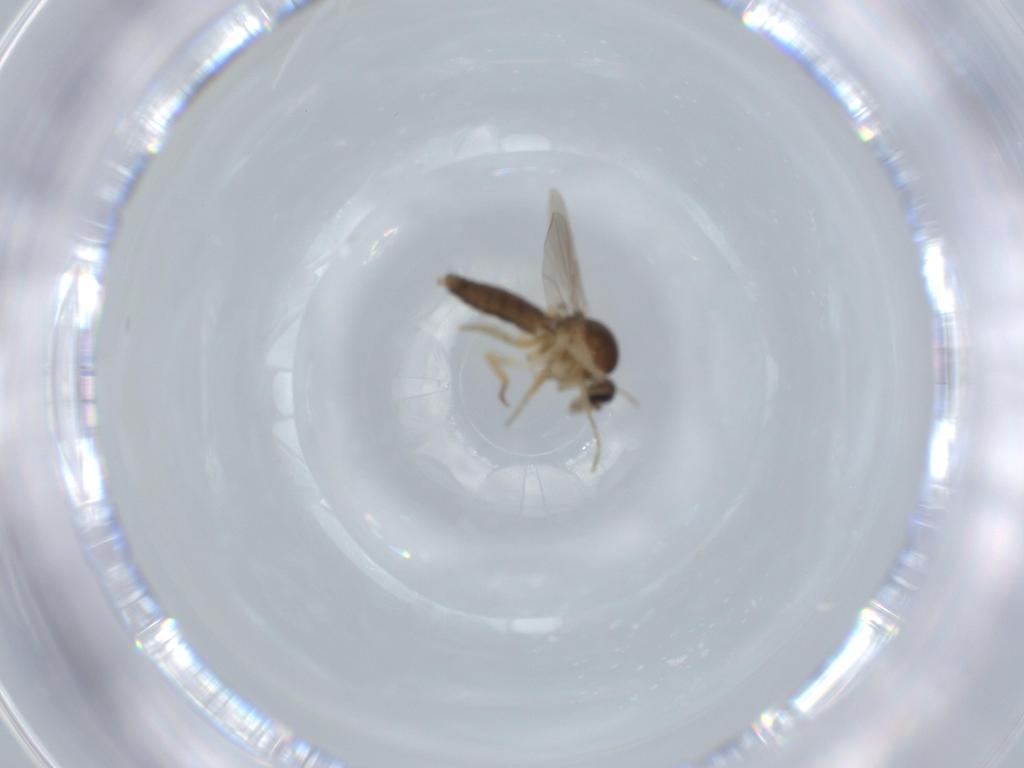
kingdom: Animalia
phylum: Arthropoda
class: Insecta
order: Diptera
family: Ceratopogonidae
